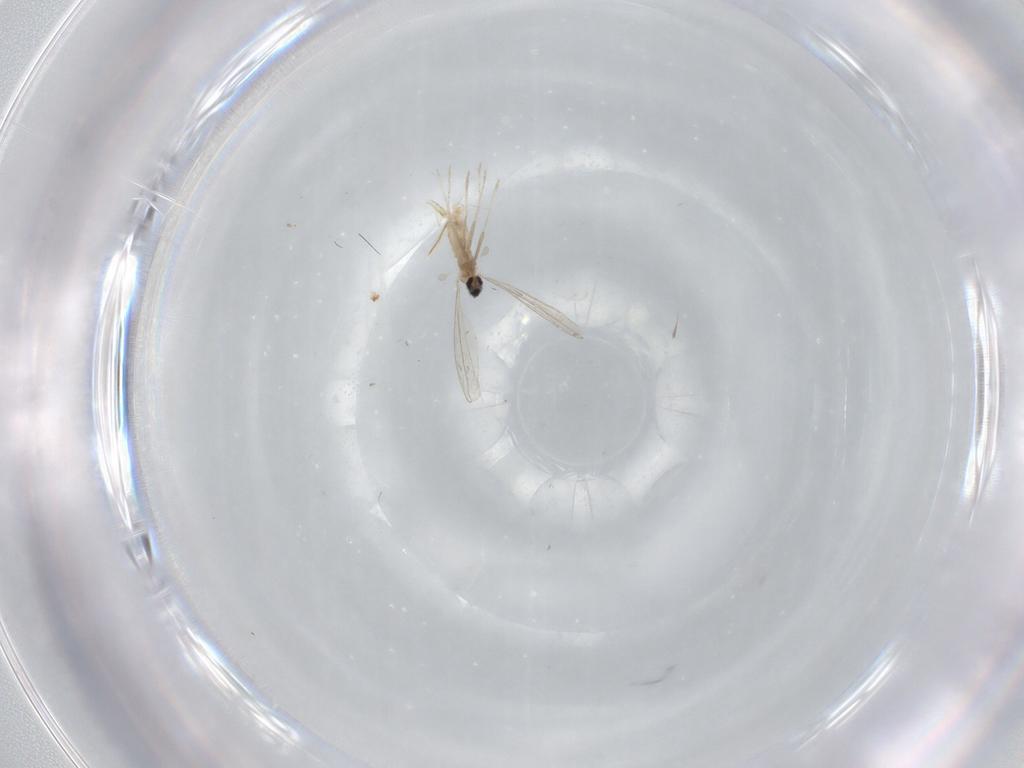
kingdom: Animalia
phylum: Arthropoda
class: Insecta
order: Diptera
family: Cecidomyiidae
